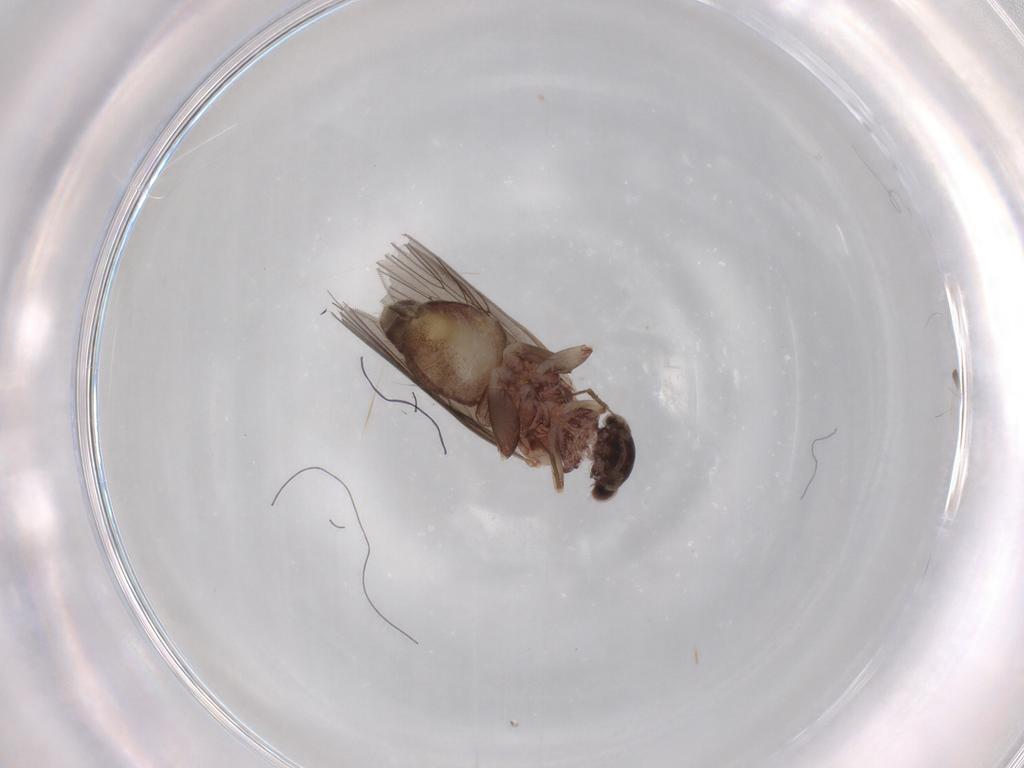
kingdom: Animalia
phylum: Arthropoda
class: Insecta
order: Psocodea
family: Lepidopsocidae
